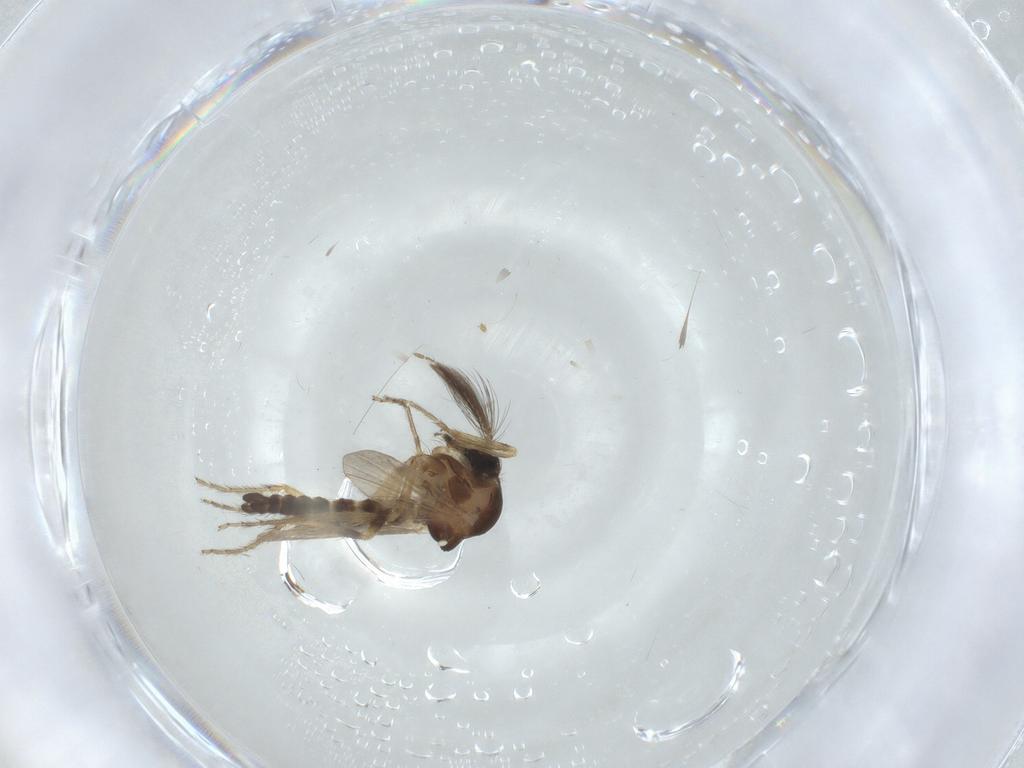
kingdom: Animalia
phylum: Arthropoda
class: Insecta
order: Diptera
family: Ceratopogonidae
